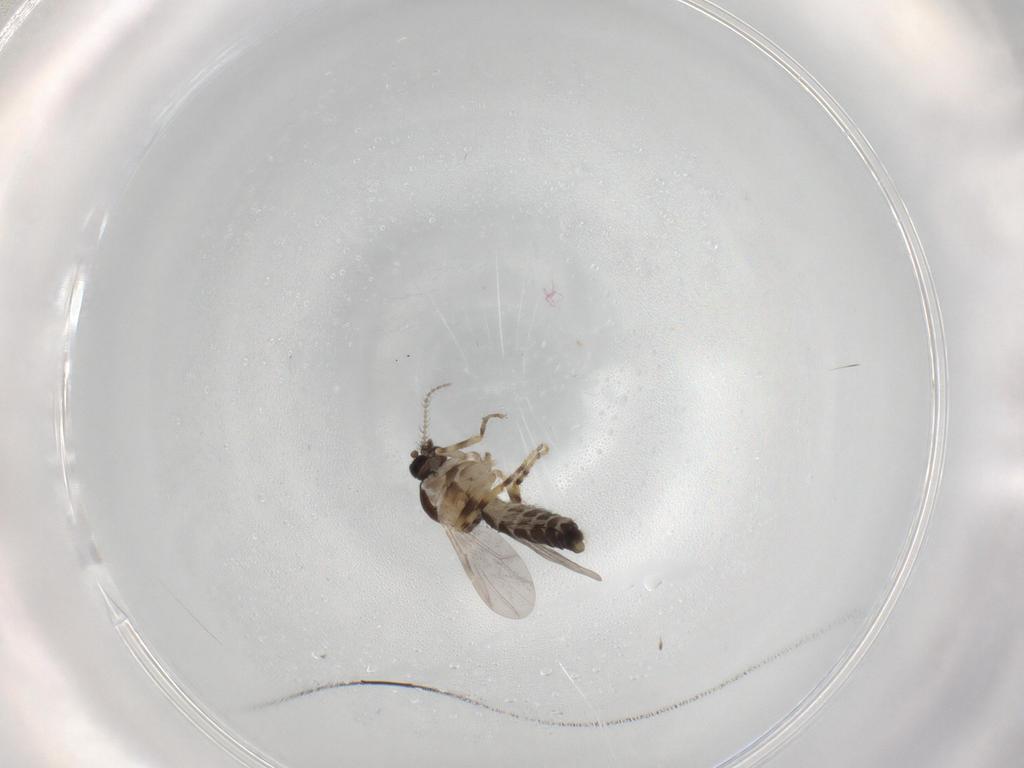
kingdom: Animalia
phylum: Arthropoda
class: Insecta
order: Diptera
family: Ceratopogonidae
